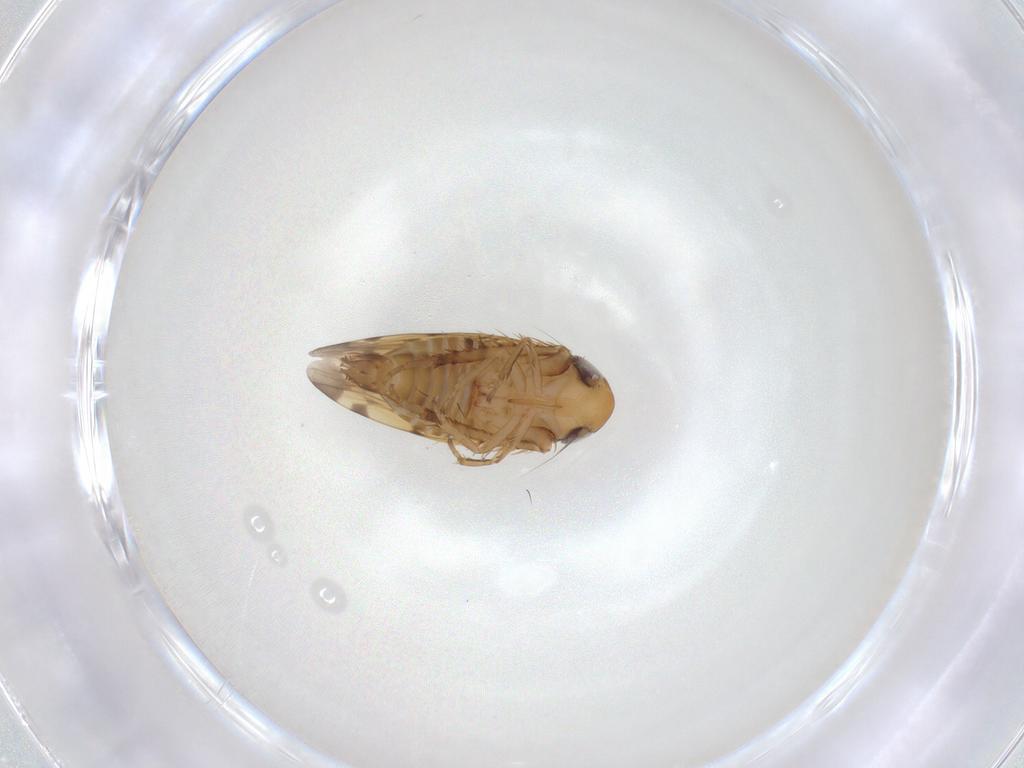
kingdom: Animalia
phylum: Arthropoda
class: Insecta
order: Hemiptera
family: Cicadellidae
